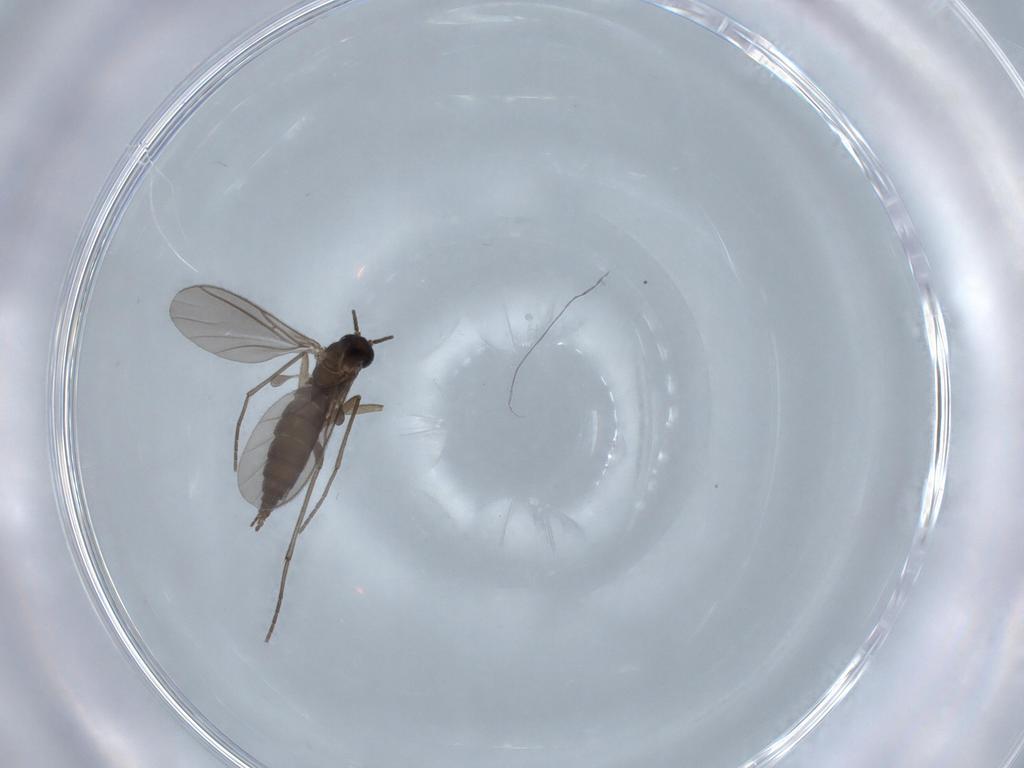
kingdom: Animalia
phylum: Arthropoda
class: Insecta
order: Diptera
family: Sciaridae
